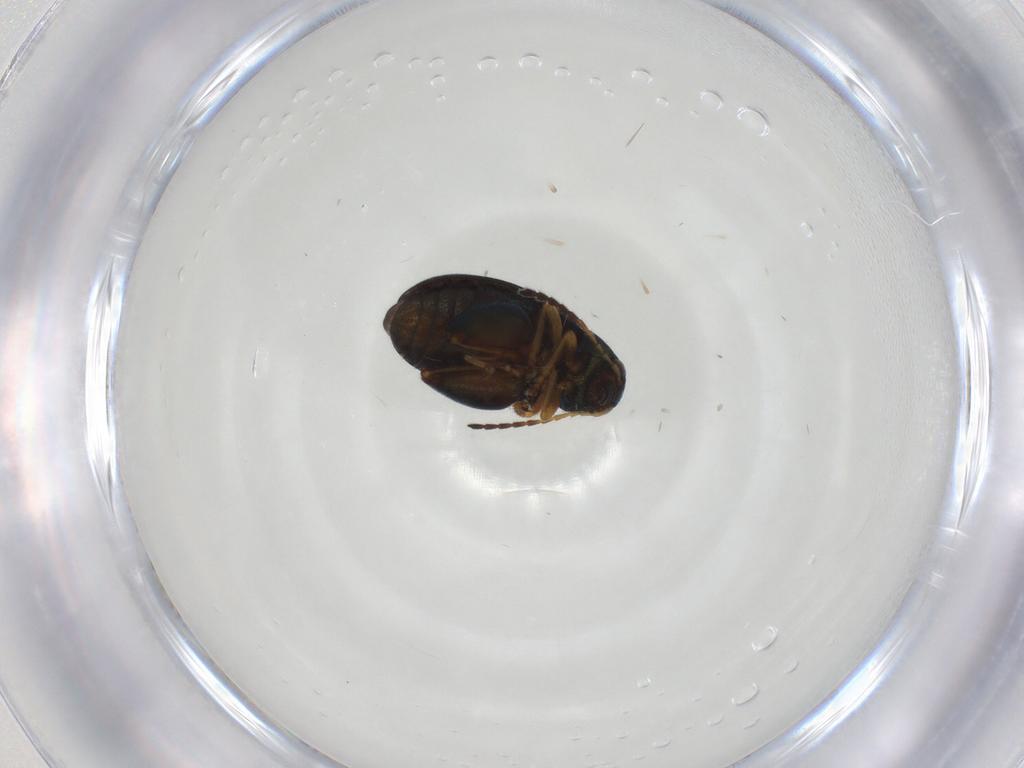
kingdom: Animalia
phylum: Arthropoda
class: Insecta
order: Coleoptera
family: Chrysomelidae
